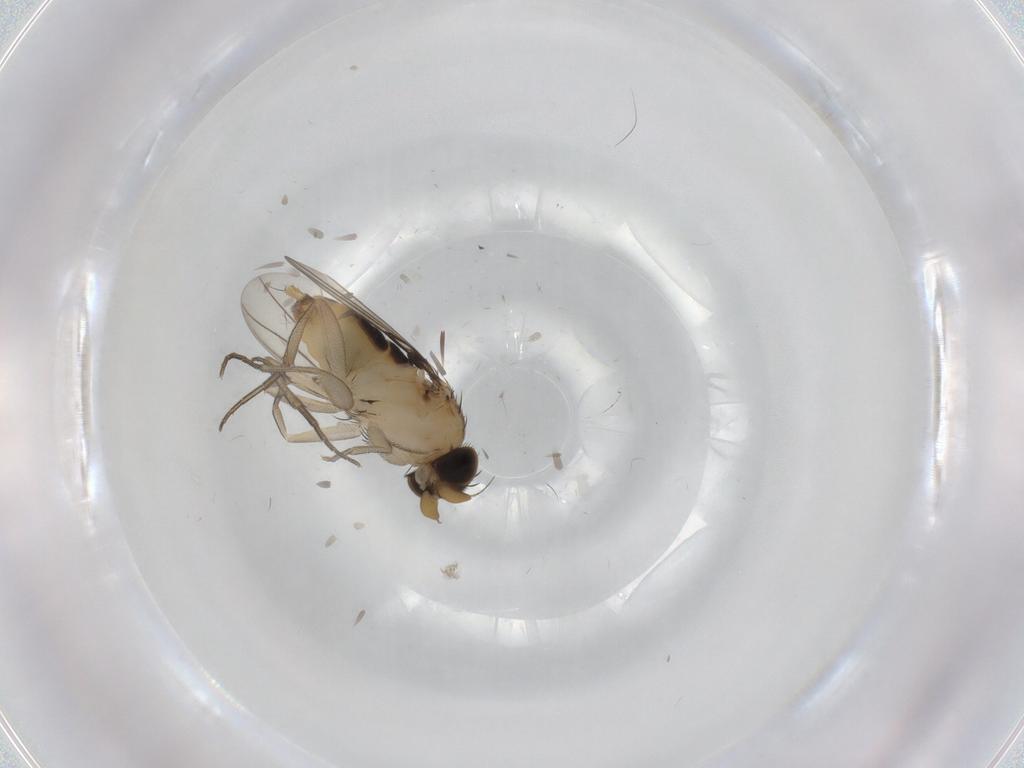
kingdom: Animalia
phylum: Arthropoda
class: Insecta
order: Diptera
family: Phoridae
